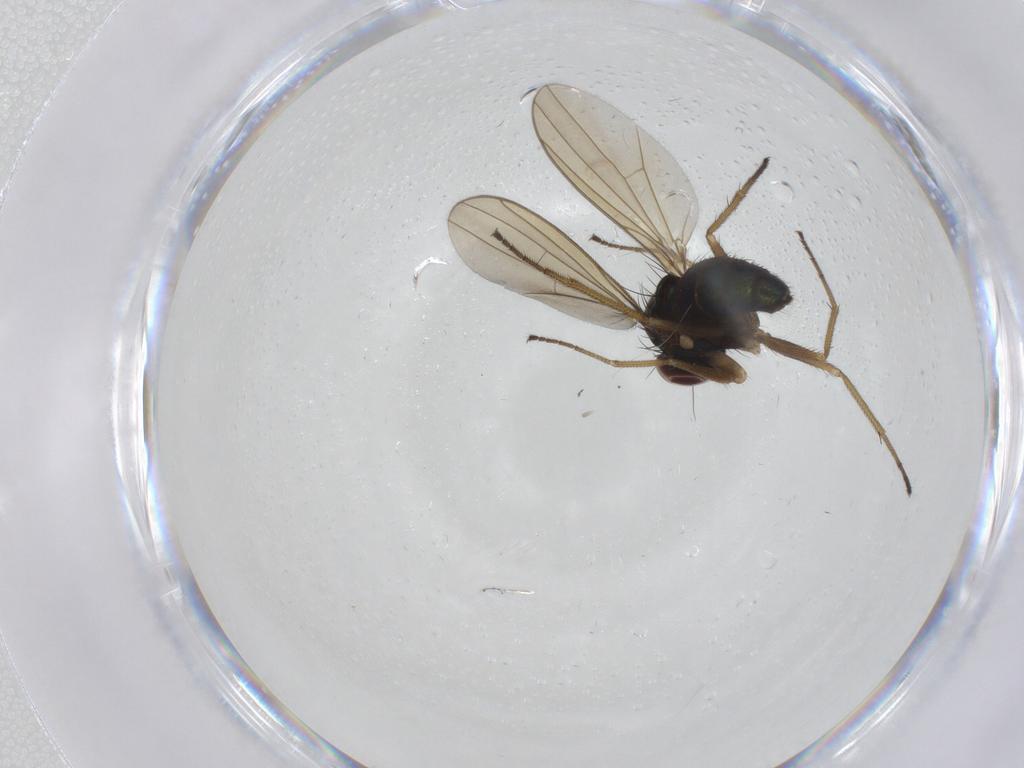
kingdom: Animalia
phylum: Arthropoda
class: Insecta
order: Diptera
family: Dolichopodidae
